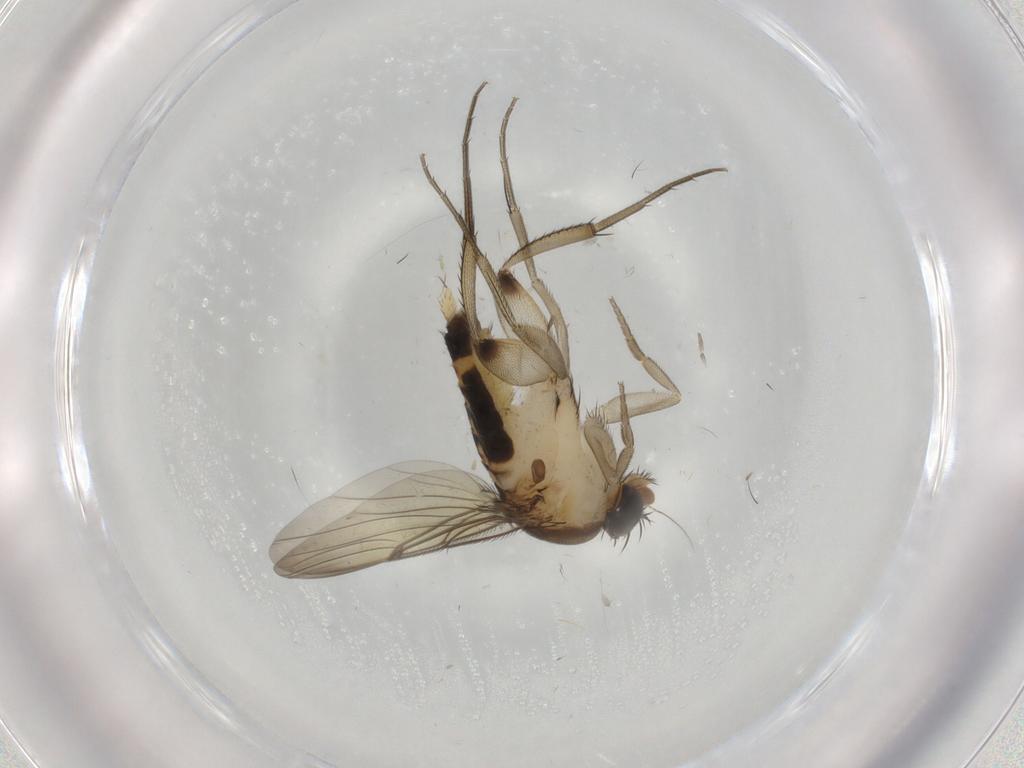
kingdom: Animalia
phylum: Arthropoda
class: Insecta
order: Diptera
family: Phoridae
